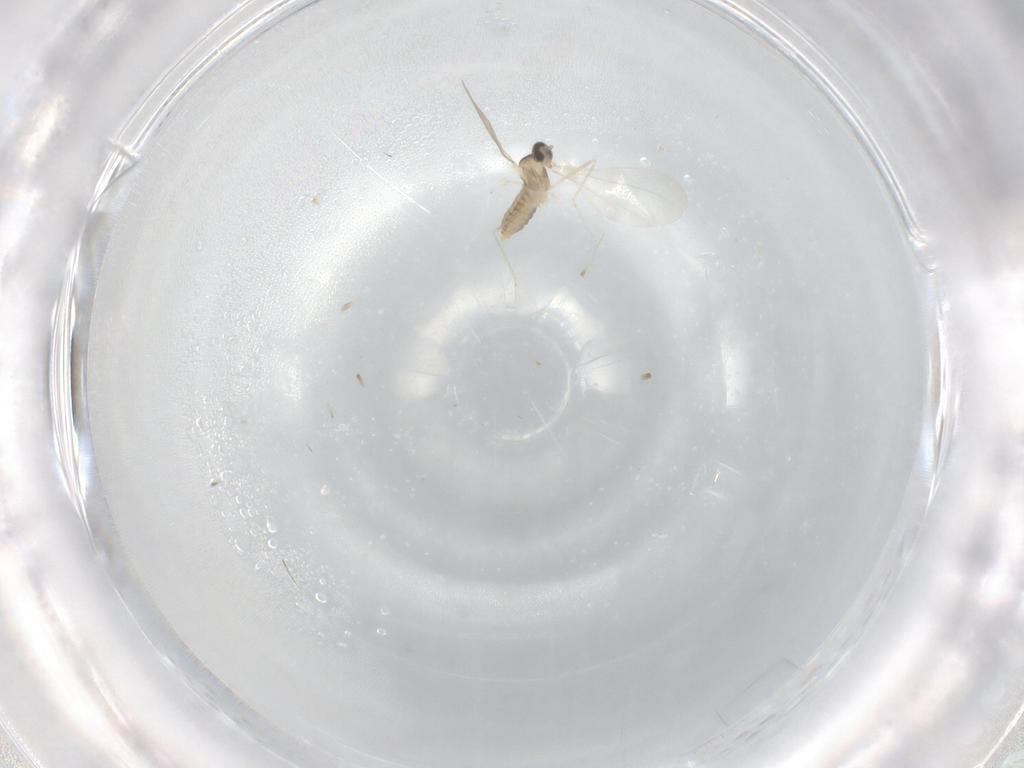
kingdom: Animalia
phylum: Arthropoda
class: Insecta
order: Diptera
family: Cecidomyiidae
